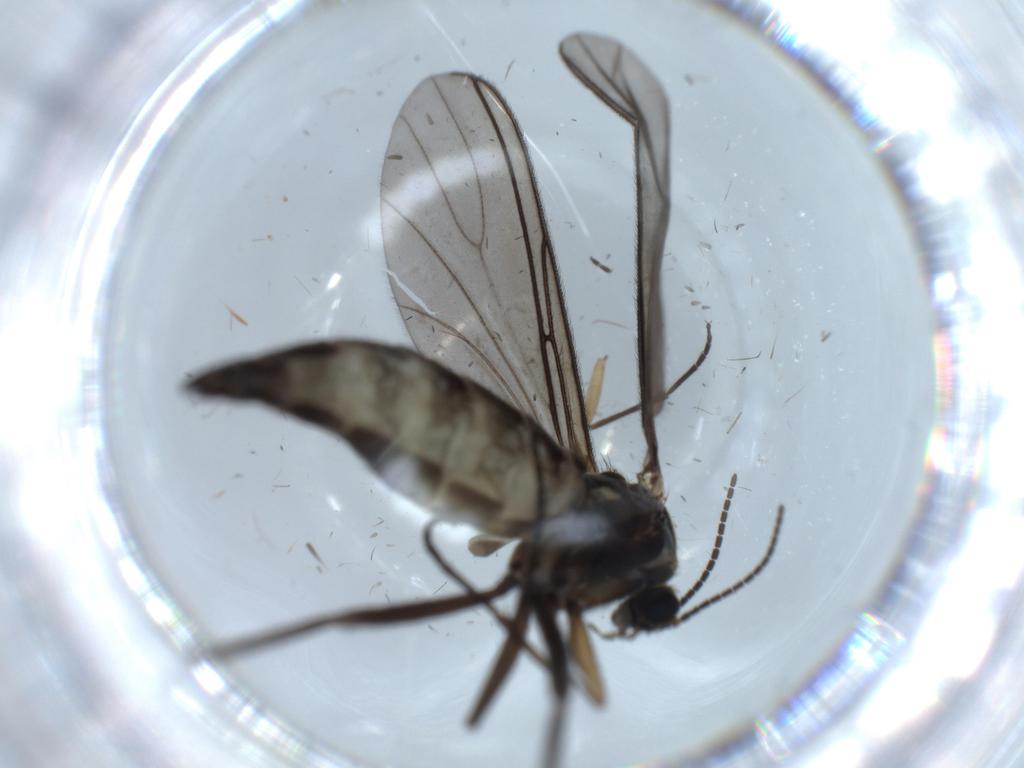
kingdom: Animalia
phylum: Arthropoda
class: Insecta
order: Diptera
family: Sciaridae
